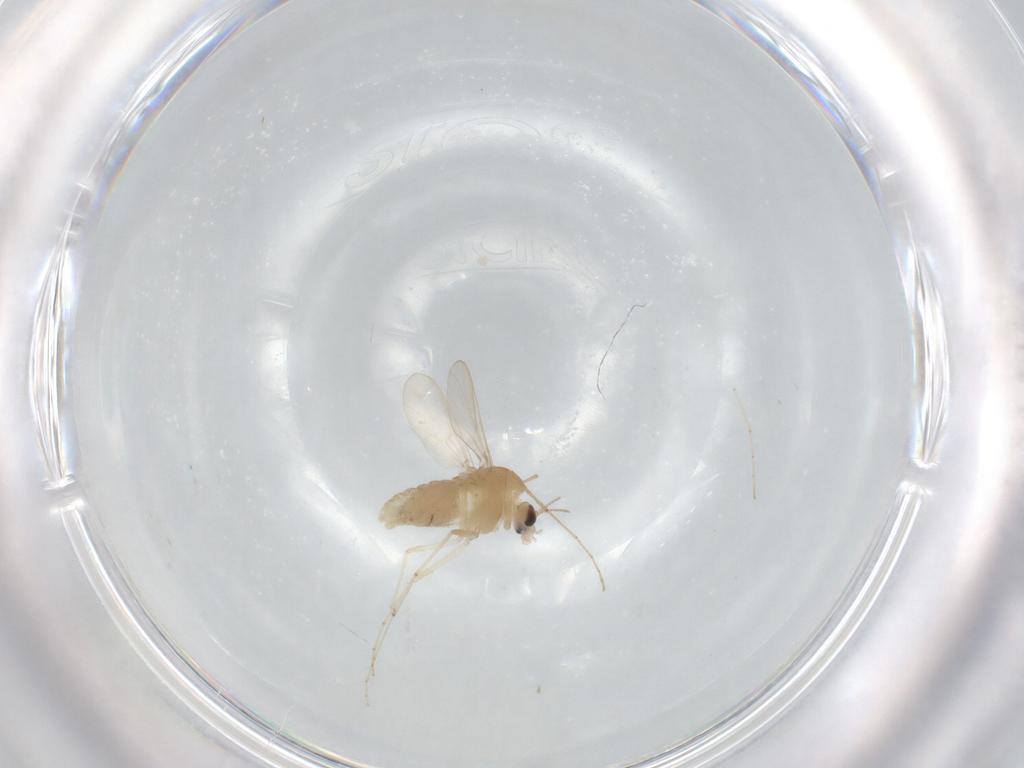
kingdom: Animalia
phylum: Arthropoda
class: Insecta
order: Diptera
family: Chironomidae
